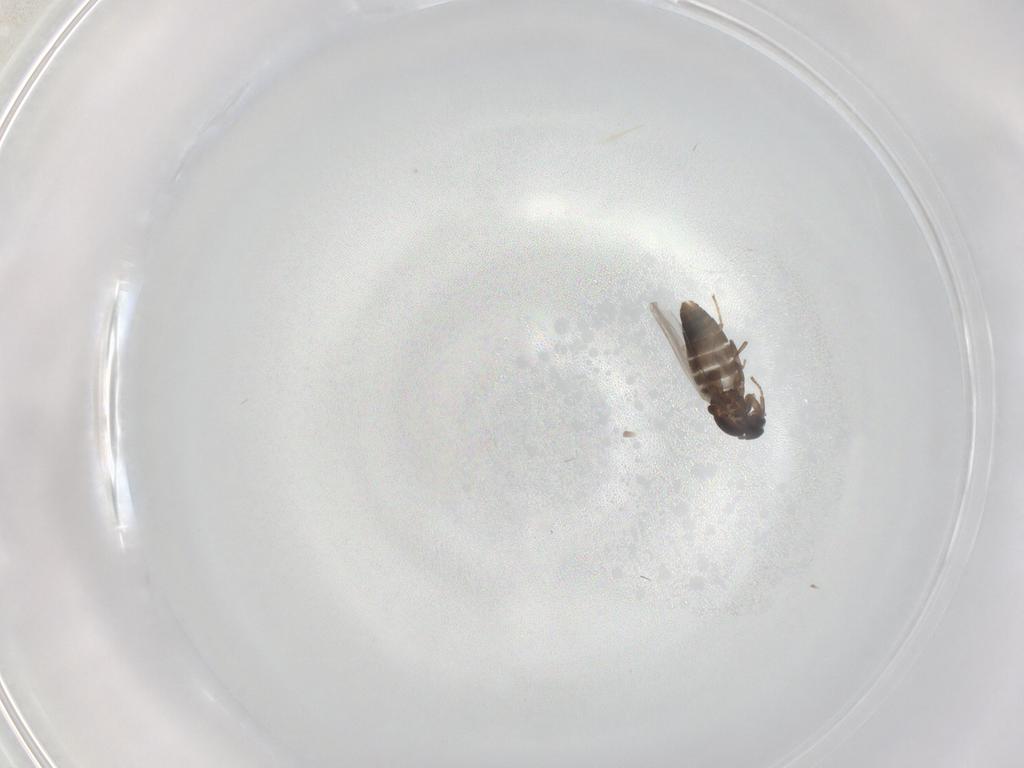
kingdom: Animalia
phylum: Arthropoda
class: Insecta
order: Diptera
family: Scatopsidae
